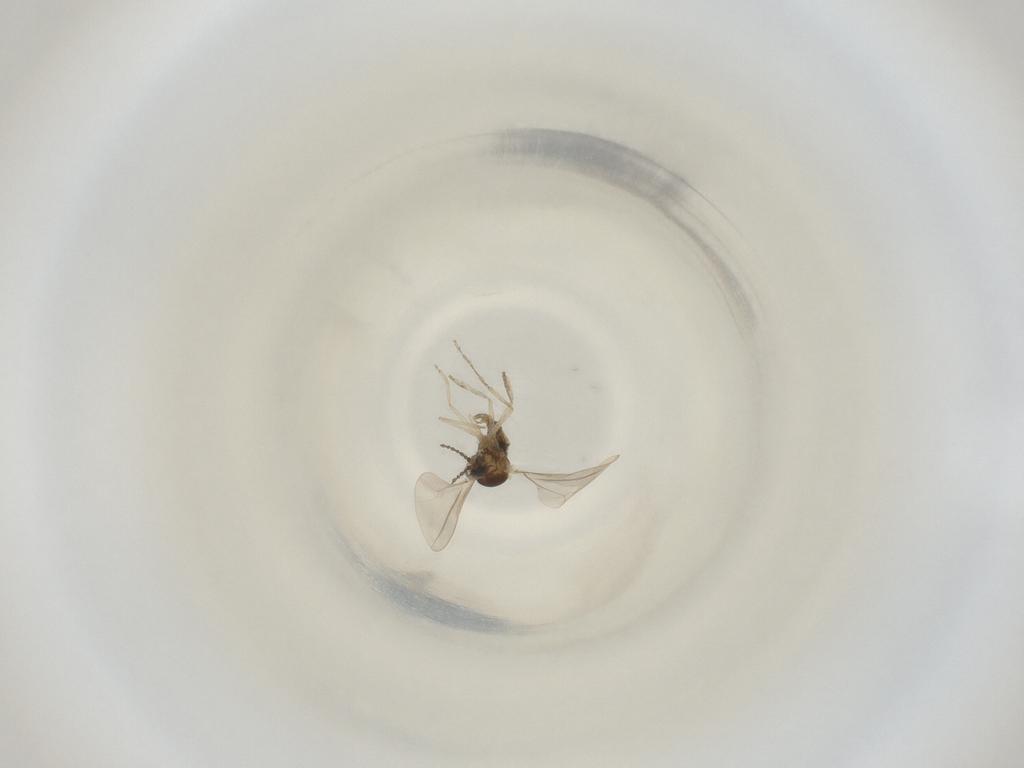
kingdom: Animalia
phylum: Arthropoda
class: Insecta
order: Diptera
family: Cecidomyiidae
